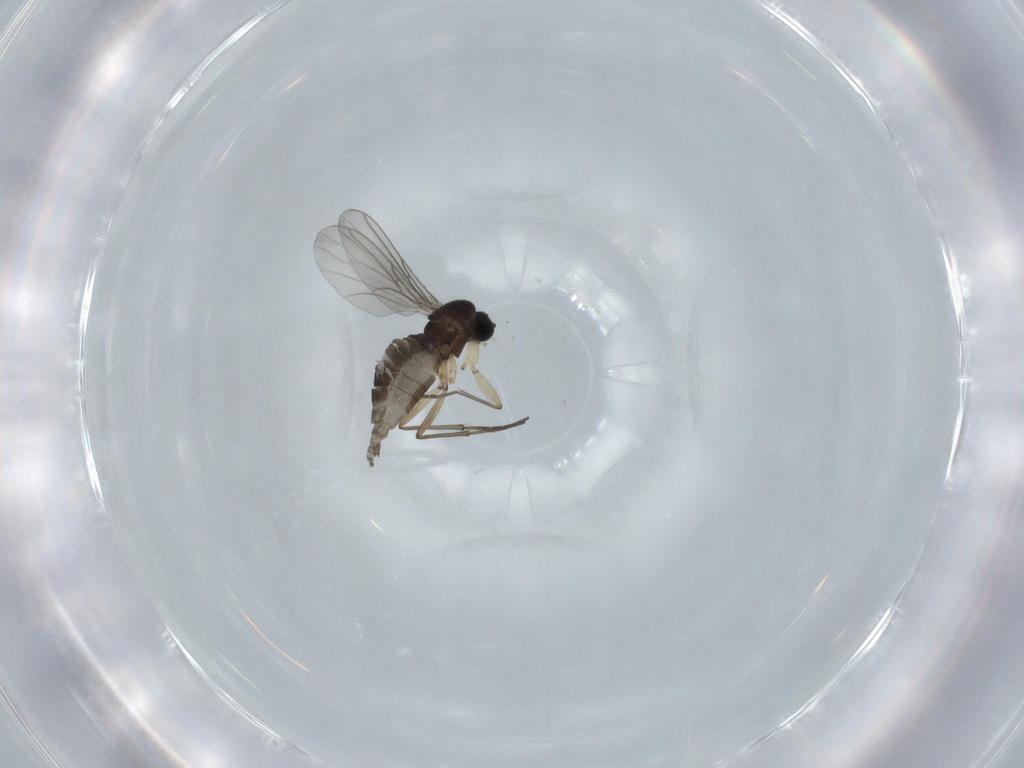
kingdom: Animalia
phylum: Arthropoda
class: Insecta
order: Diptera
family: Sciaridae
